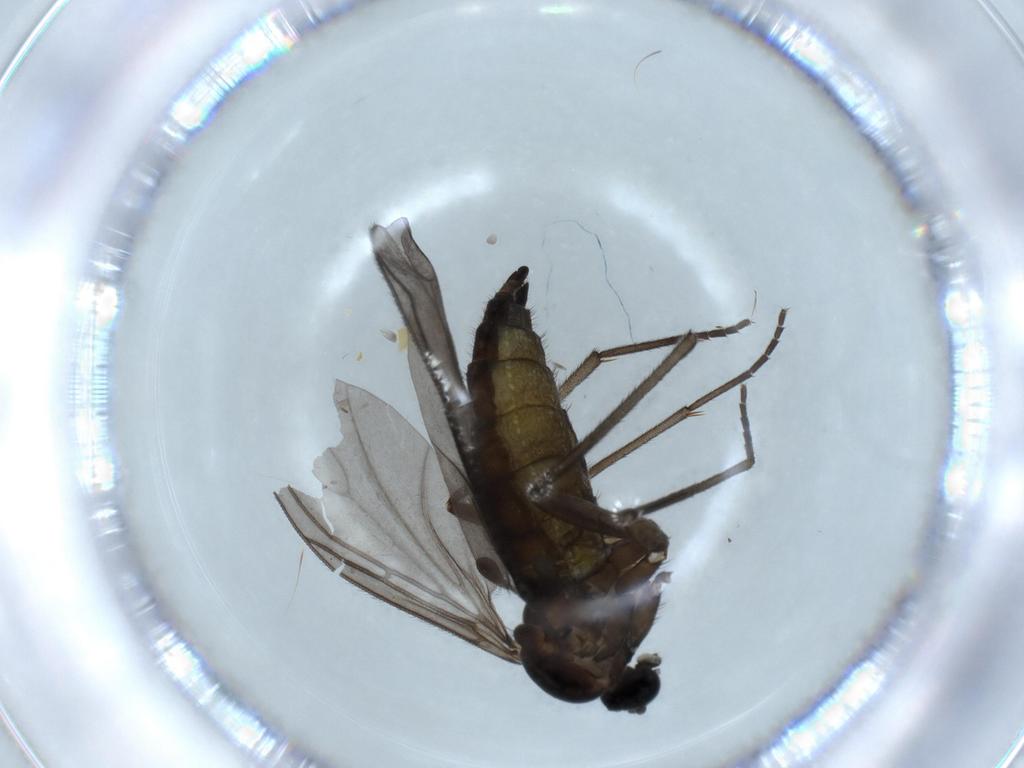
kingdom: Animalia
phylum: Arthropoda
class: Insecta
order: Diptera
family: Sciaridae
